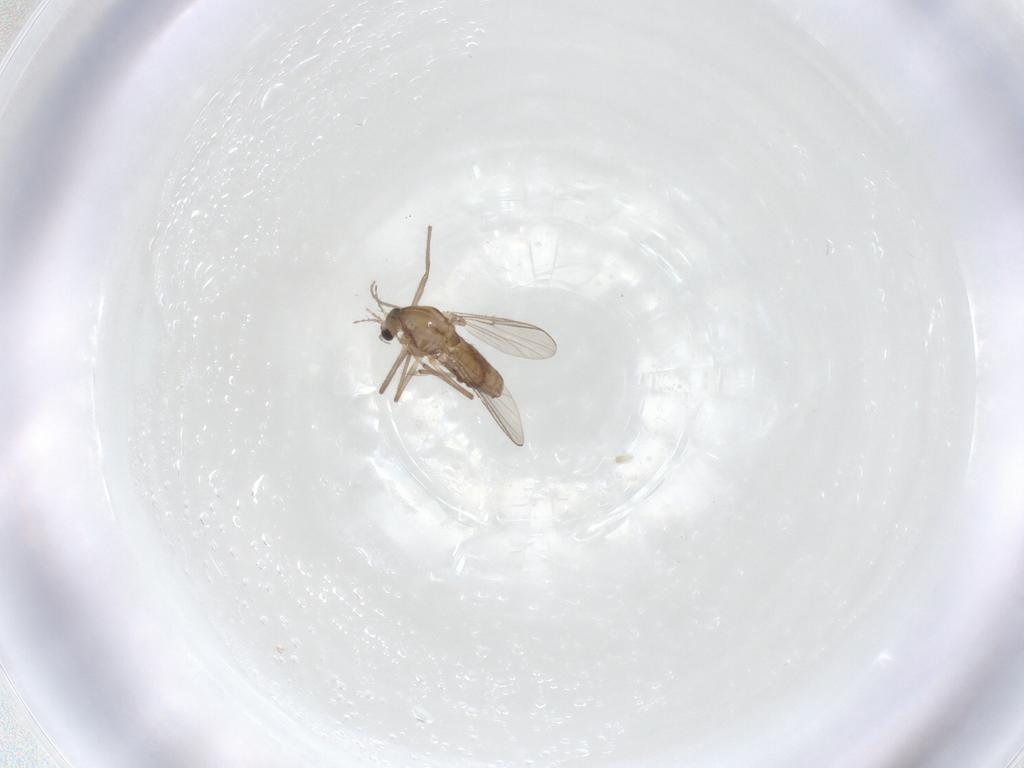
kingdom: Animalia
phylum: Arthropoda
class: Insecta
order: Diptera
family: Chironomidae
